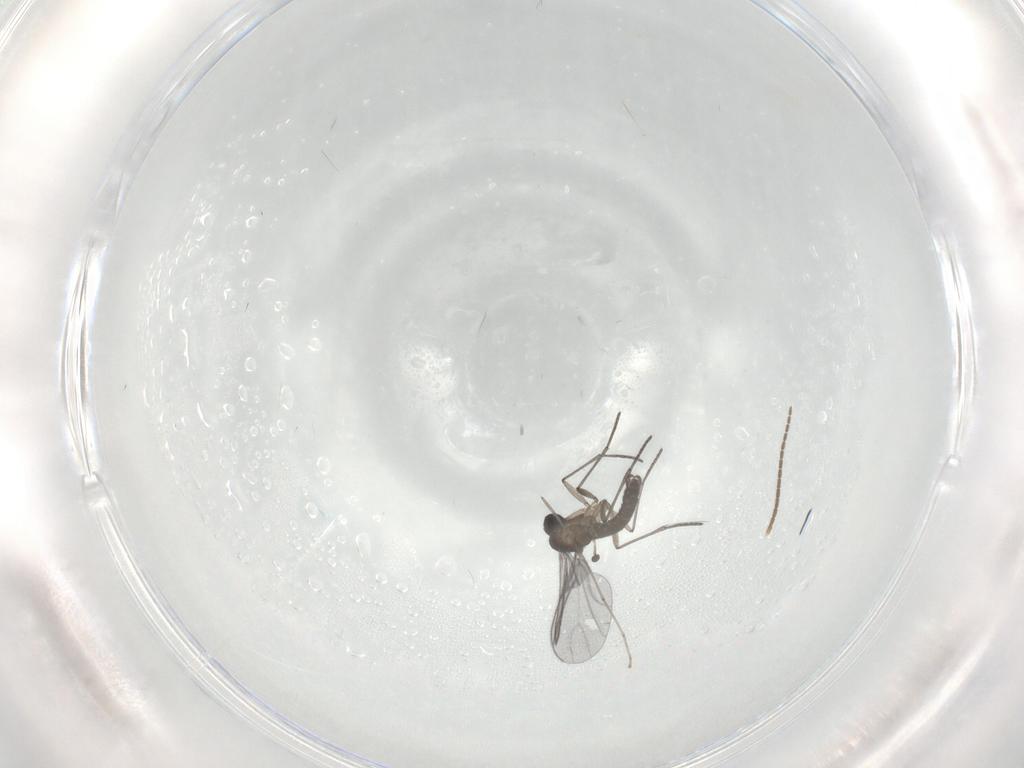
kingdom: Animalia
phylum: Arthropoda
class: Insecta
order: Diptera
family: Sciaridae
